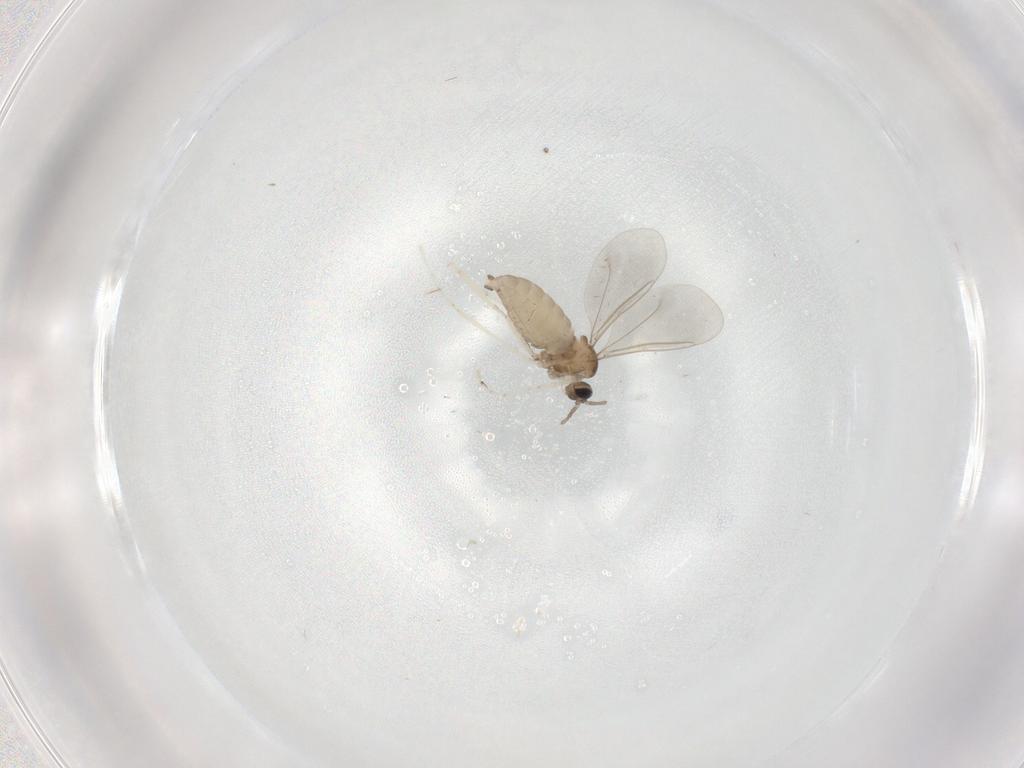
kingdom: Animalia
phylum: Arthropoda
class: Insecta
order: Diptera
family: Cecidomyiidae
